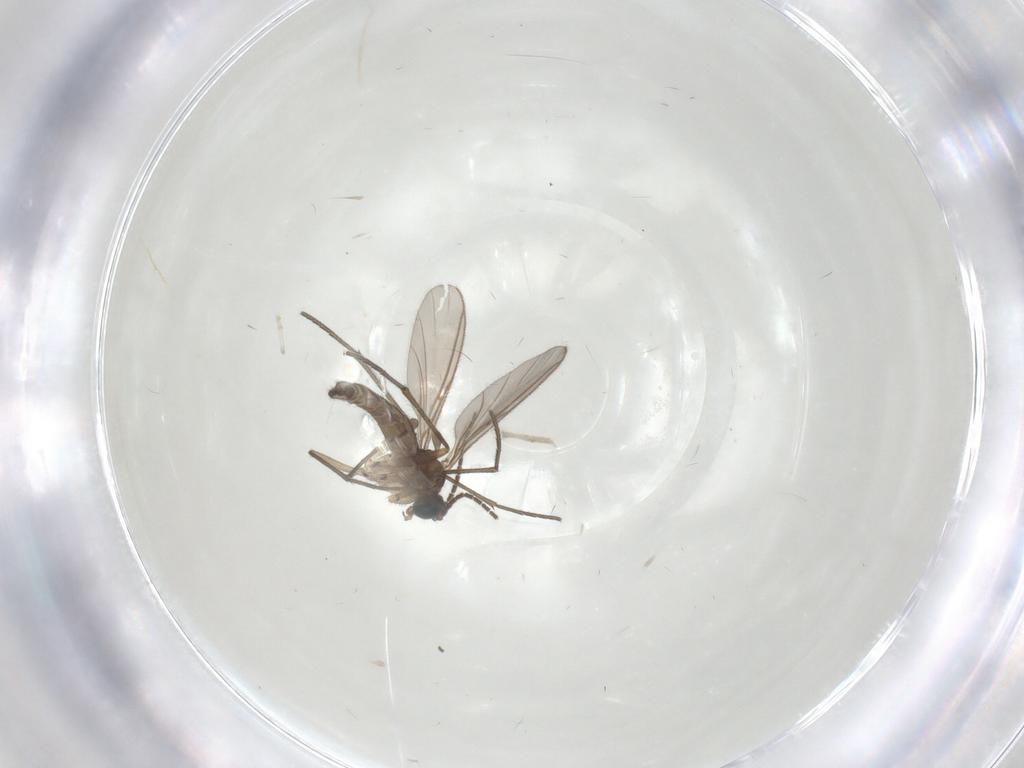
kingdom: Animalia
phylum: Arthropoda
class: Insecta
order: Diptera
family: Sciaridae
